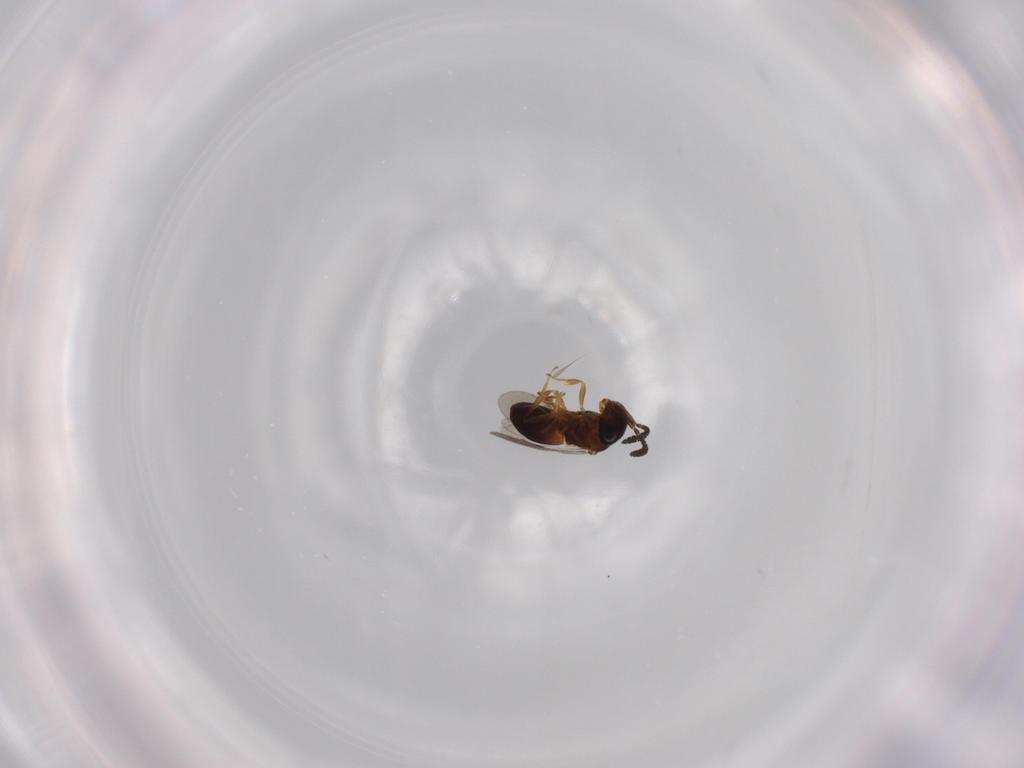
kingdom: Animalia
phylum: Arthropoda
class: Insecta
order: Hymenoptera
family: Scelionidae
